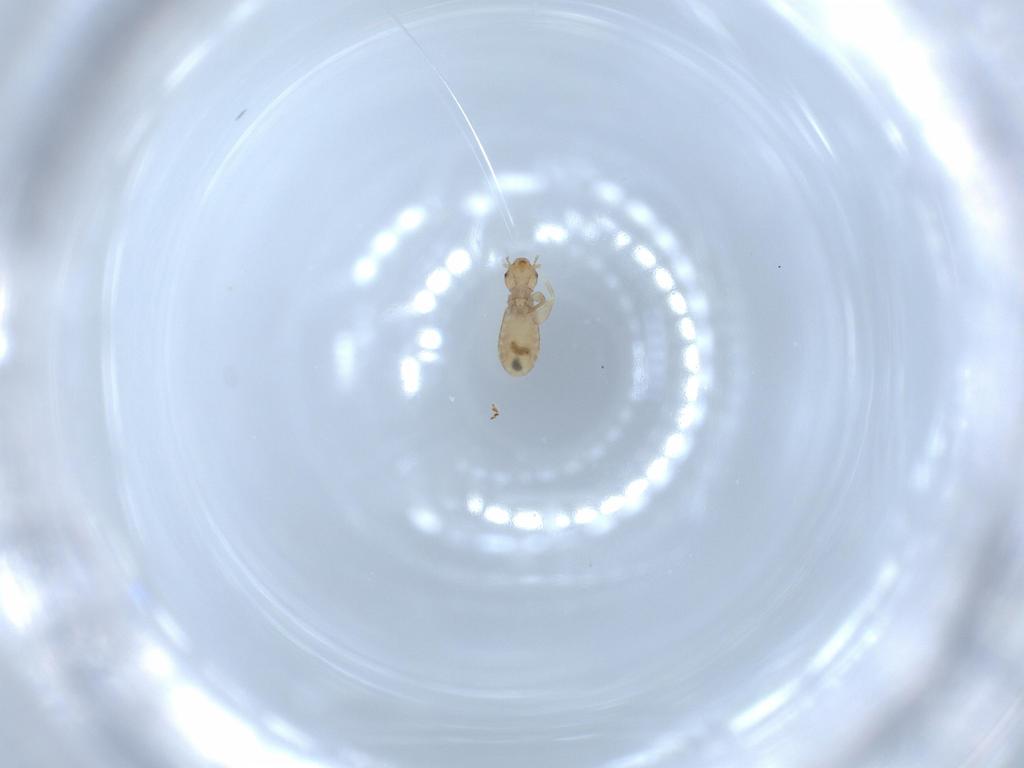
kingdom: Animalia
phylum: Arthropoda
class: Insecta
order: Psocodea
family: Liposcelididae
